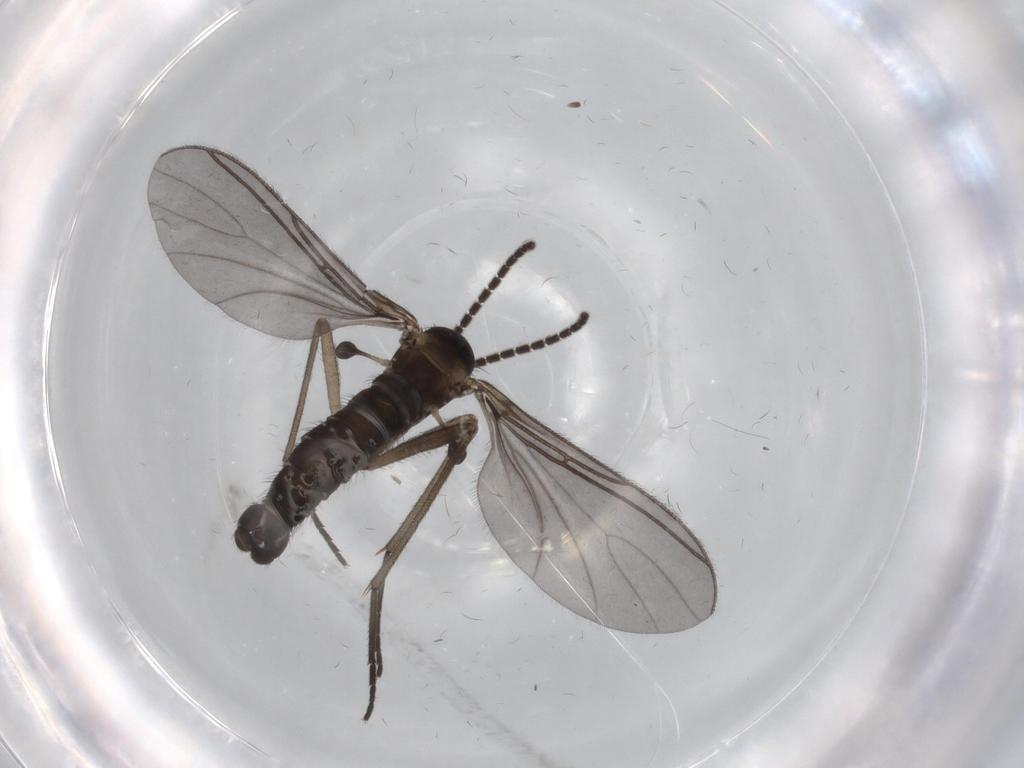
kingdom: Animalia
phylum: Arthropoda
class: Insecta
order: Diptera
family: Sciaridae
